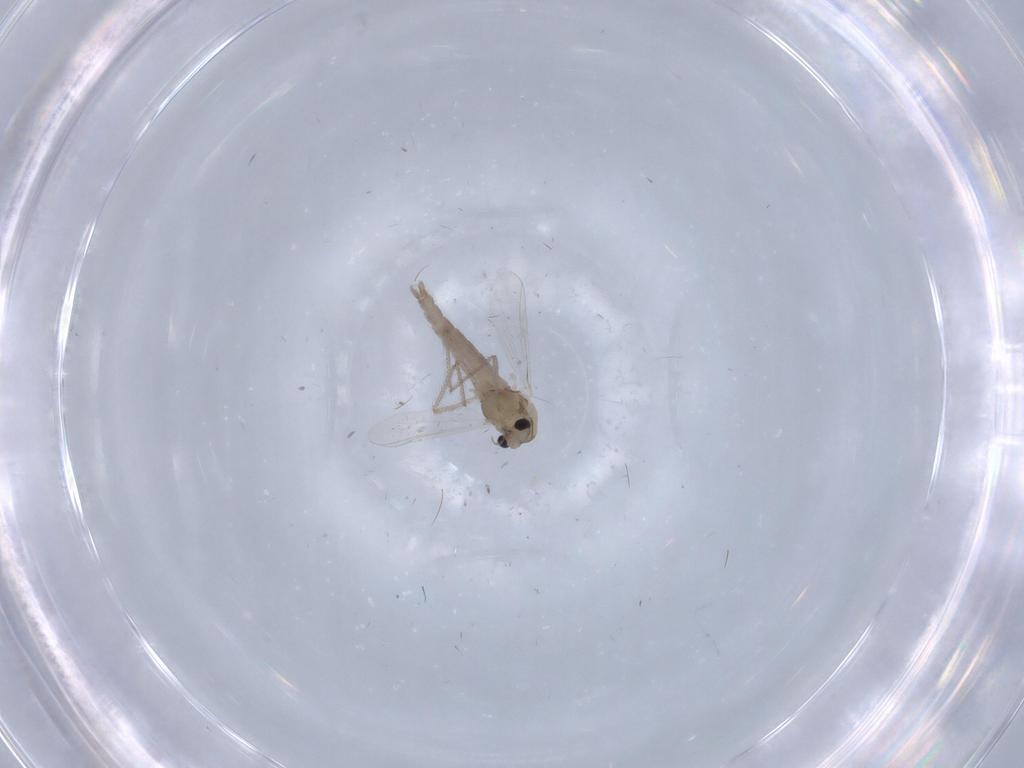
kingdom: Animalia
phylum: Arthropoda
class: Insecta
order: Diptera
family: Chironomidae
